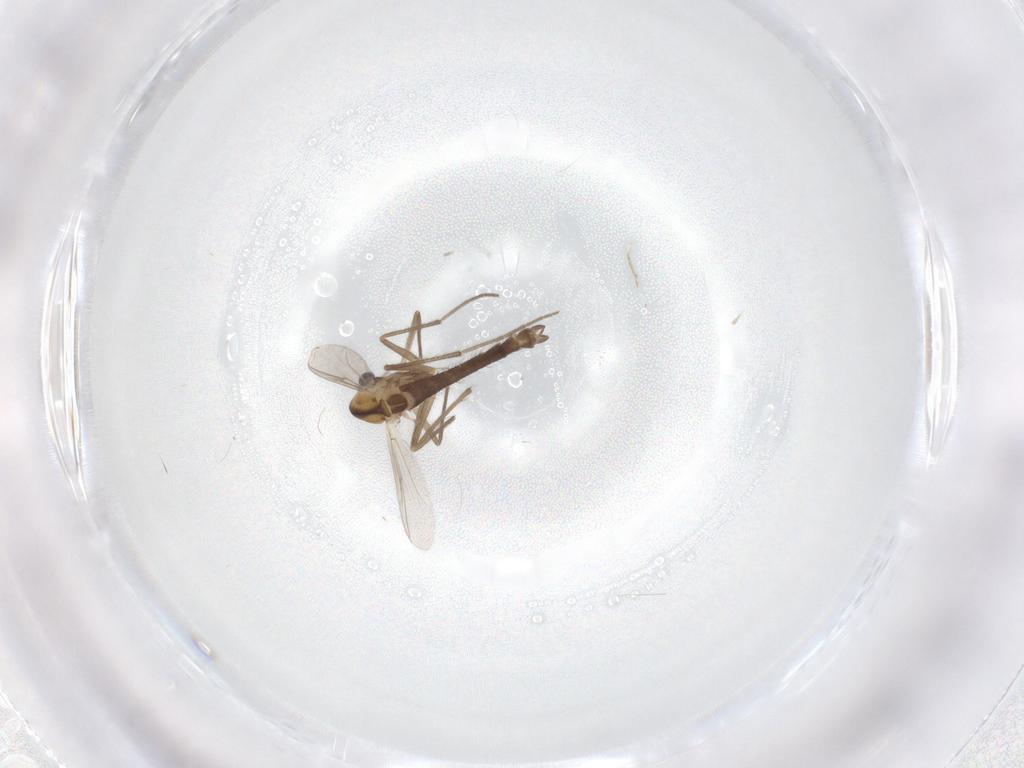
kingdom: Animalia
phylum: Arthropoda
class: Insecta
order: Diptera
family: Chironomidae
